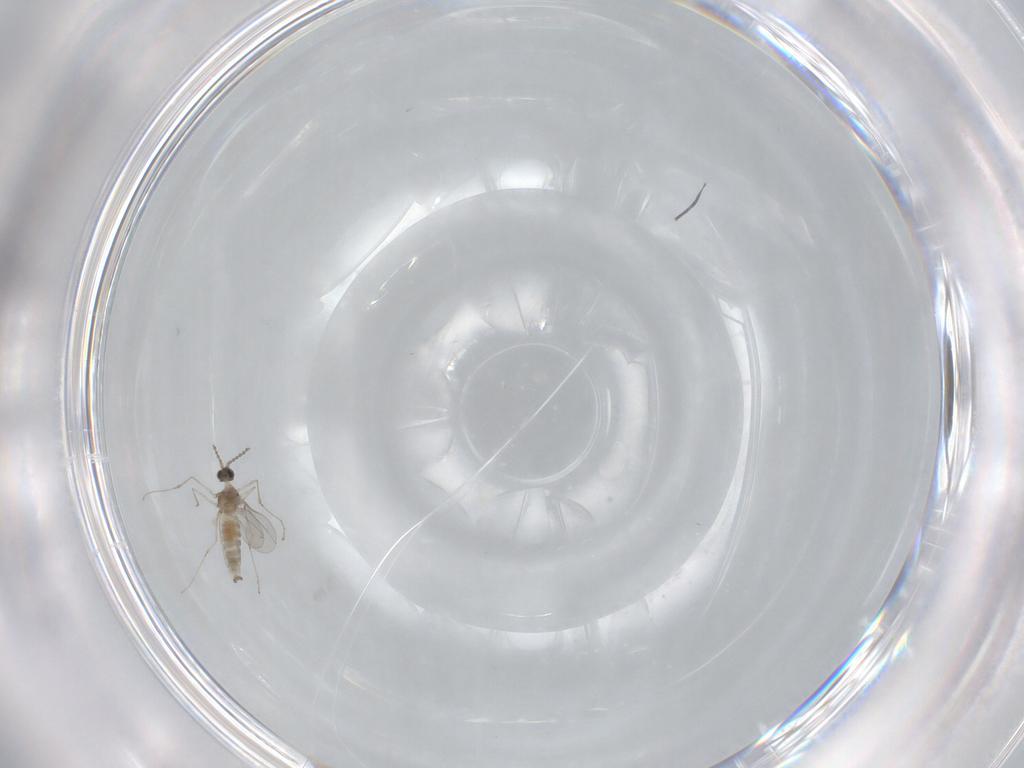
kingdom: Animalia
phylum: Arthropoda
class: Insecta
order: Diptera
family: Cecidomyiidae
